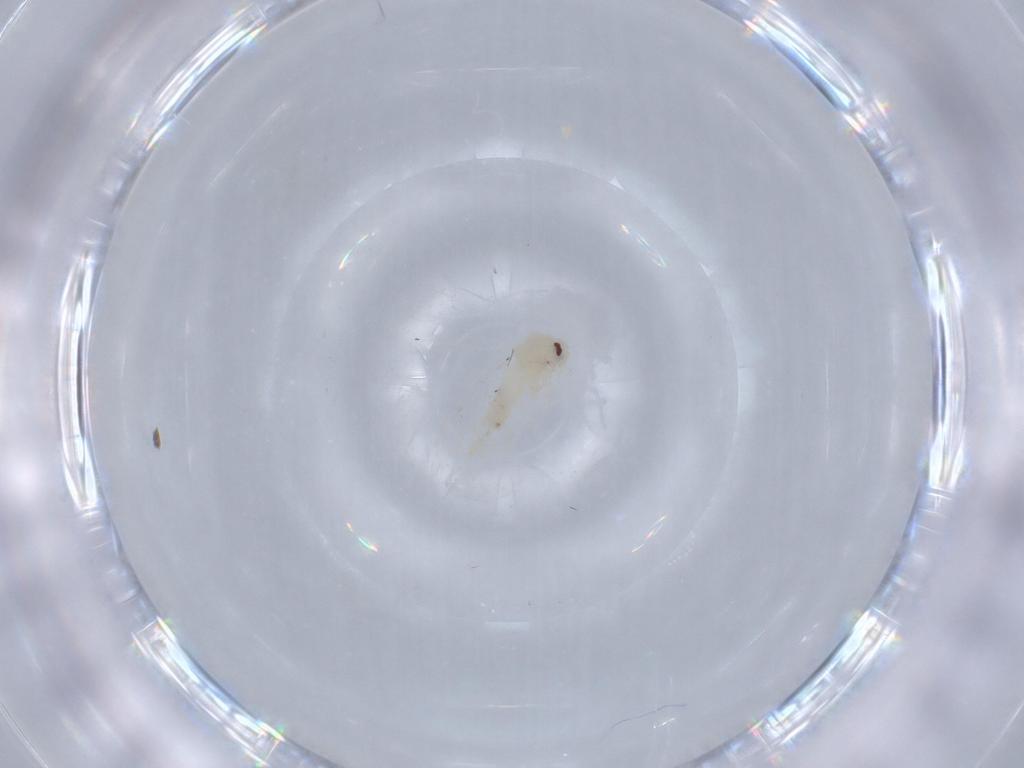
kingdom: Animalia
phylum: Arthropoda
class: Insecta
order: Hemiptera
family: Aleyrodidae
